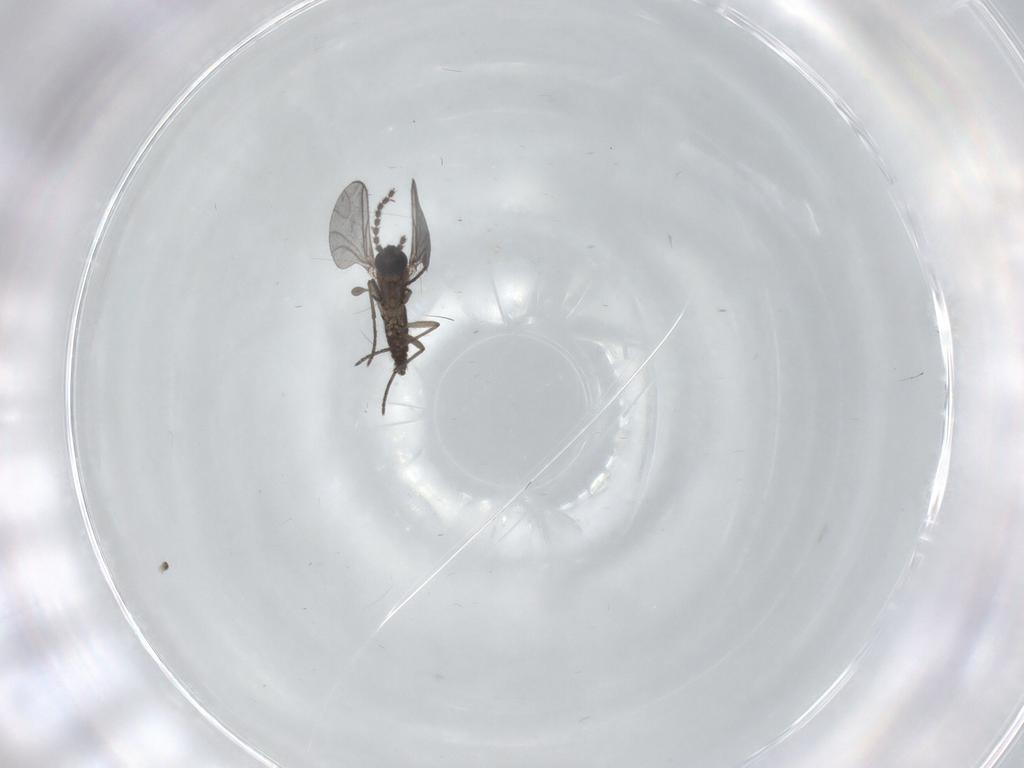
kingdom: Animalia
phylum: Arthropoda
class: Insecta
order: Diptera
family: Sciaridae
